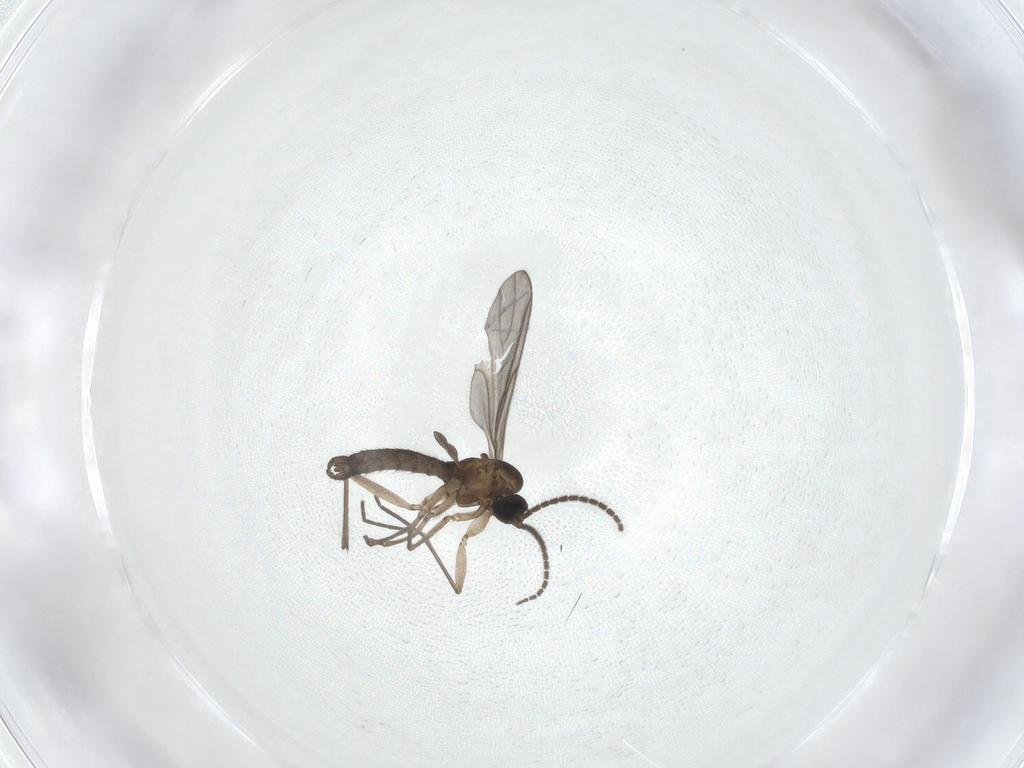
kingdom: Animalia
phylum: Arthropoda
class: Insecta
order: Diptera
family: Sciaridae
